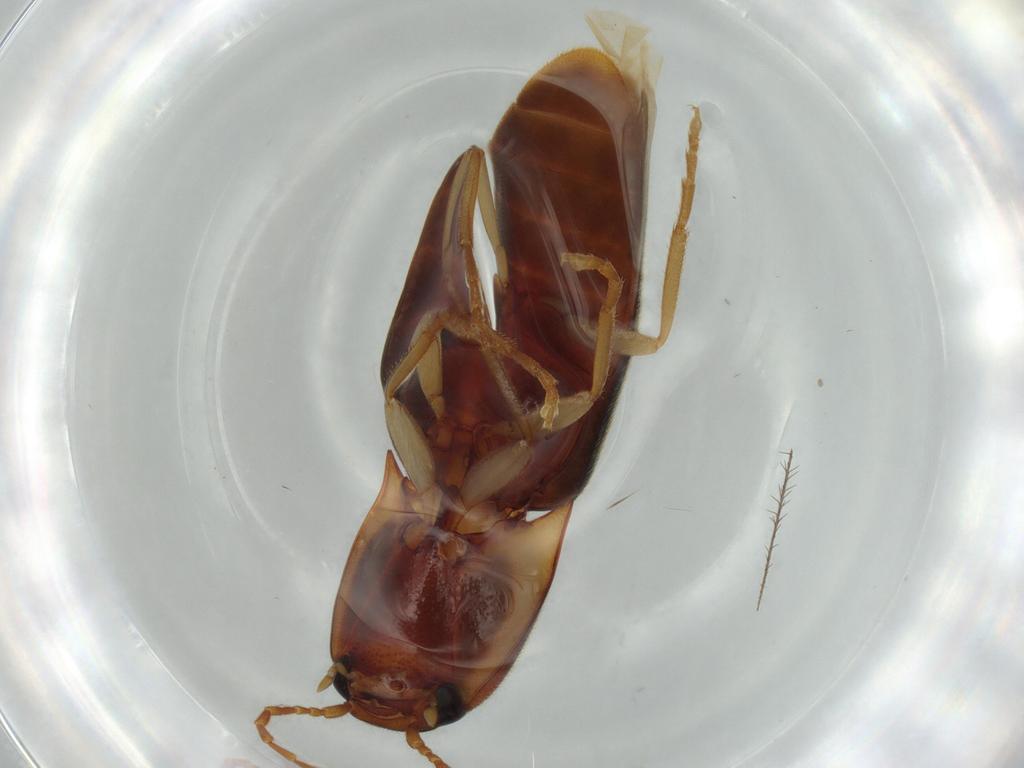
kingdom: Animalia
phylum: Arthropoda
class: Insecta
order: Coleoptera
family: Elateridae
